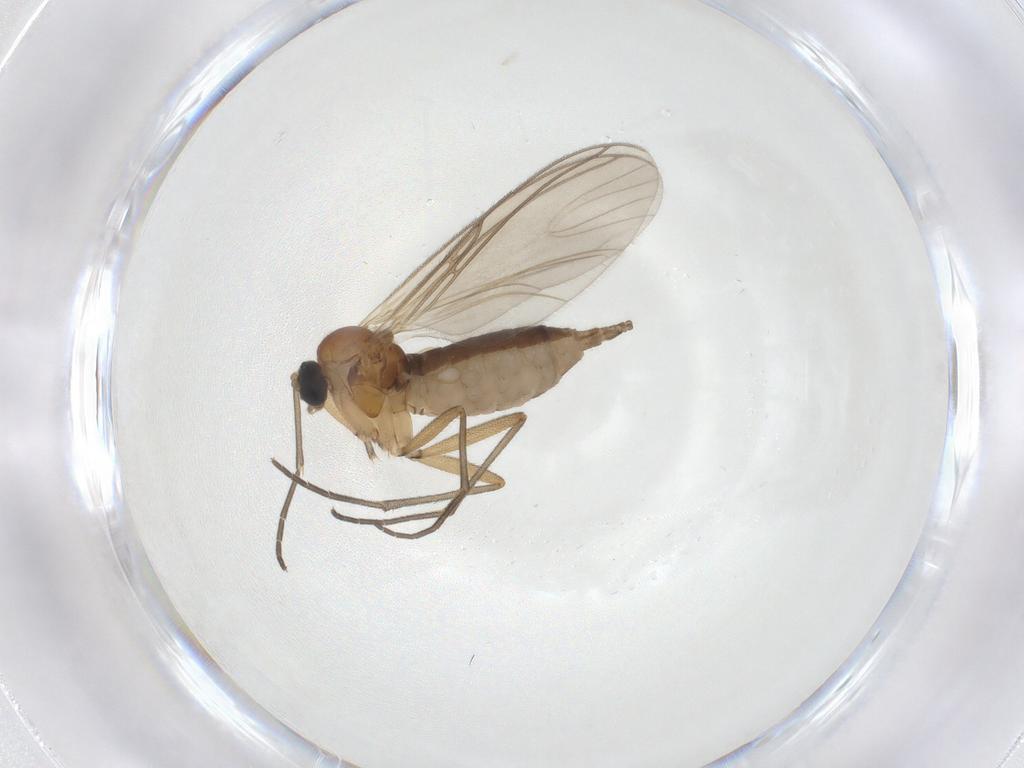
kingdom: Animalia
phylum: Arthropoda
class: Insecta
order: Diptera
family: Sciaridae
